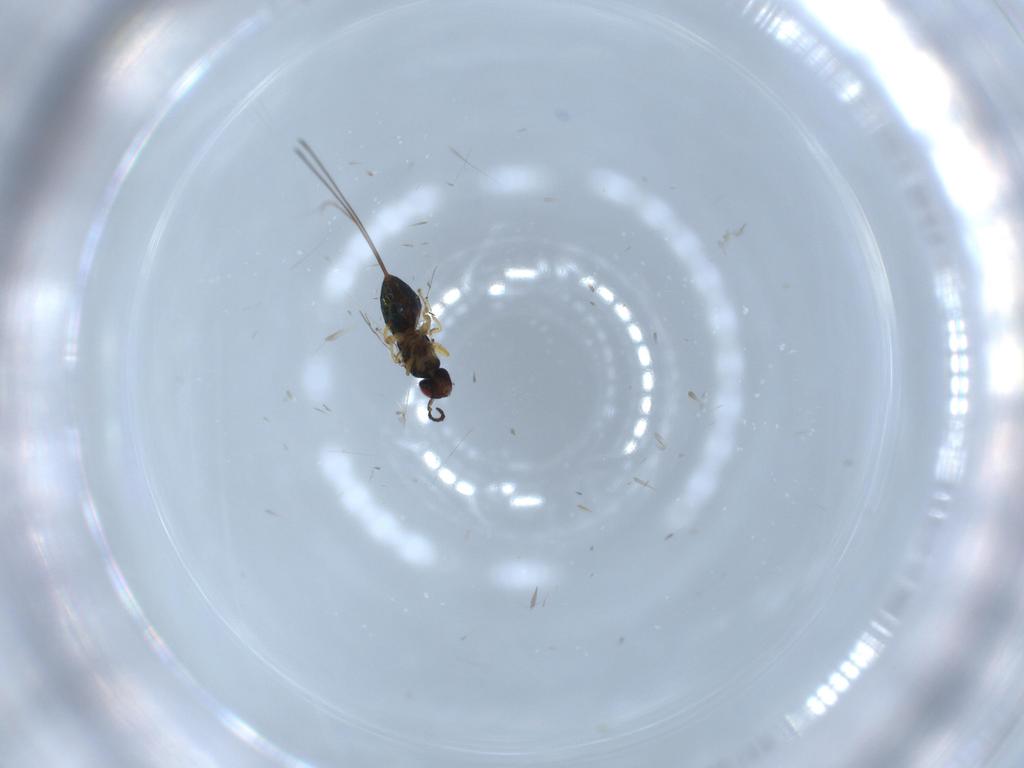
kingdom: Animalia
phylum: Arthropoda
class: Insecta
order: Hymenoptera
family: Agaonidae
